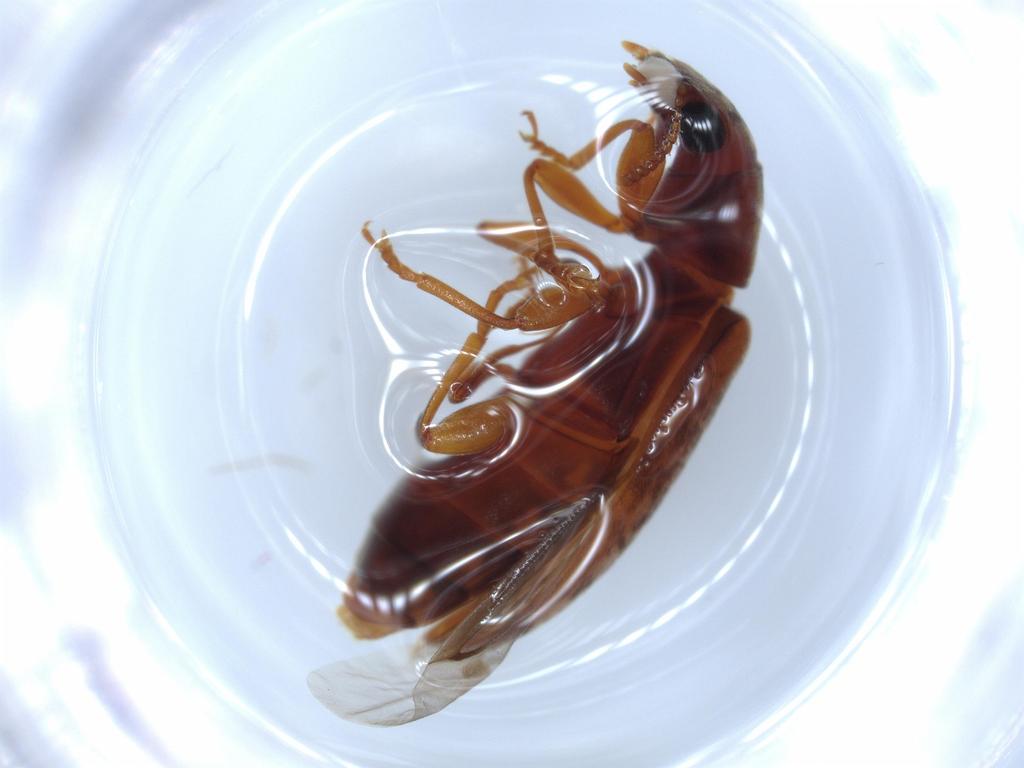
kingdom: Animalia
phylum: Arthropoda
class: Insecta
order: Coleoptera
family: Mycteridae
